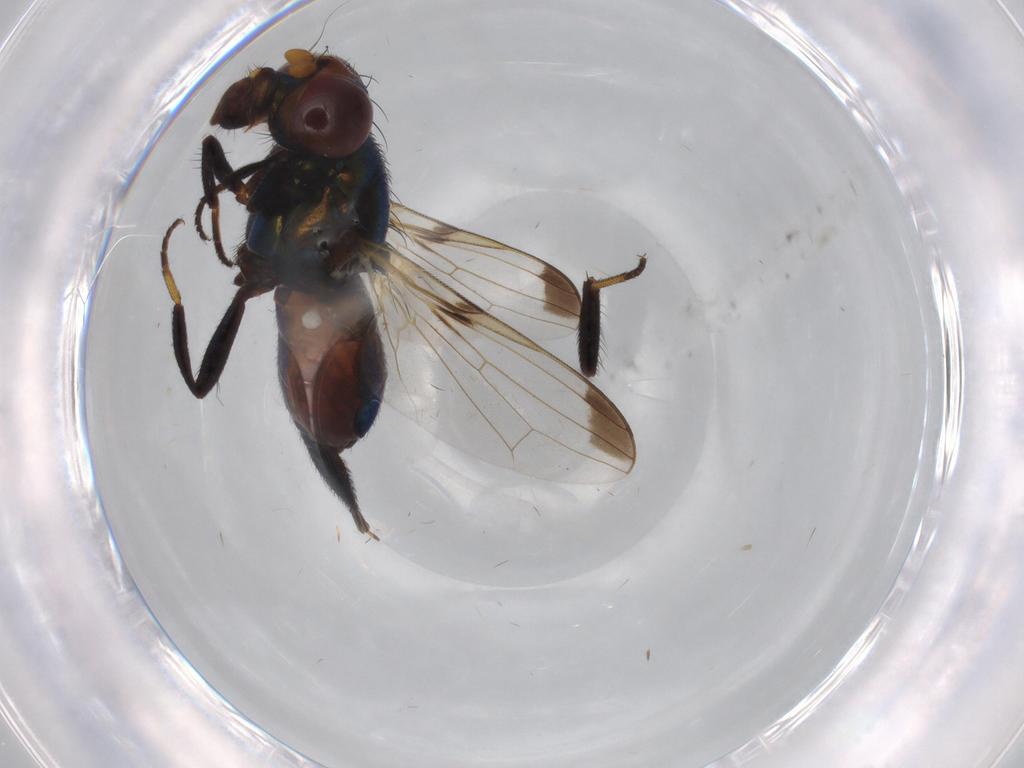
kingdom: Animalia
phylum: Arthropoda
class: Insecta
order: Diptera
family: Ulidiidae
